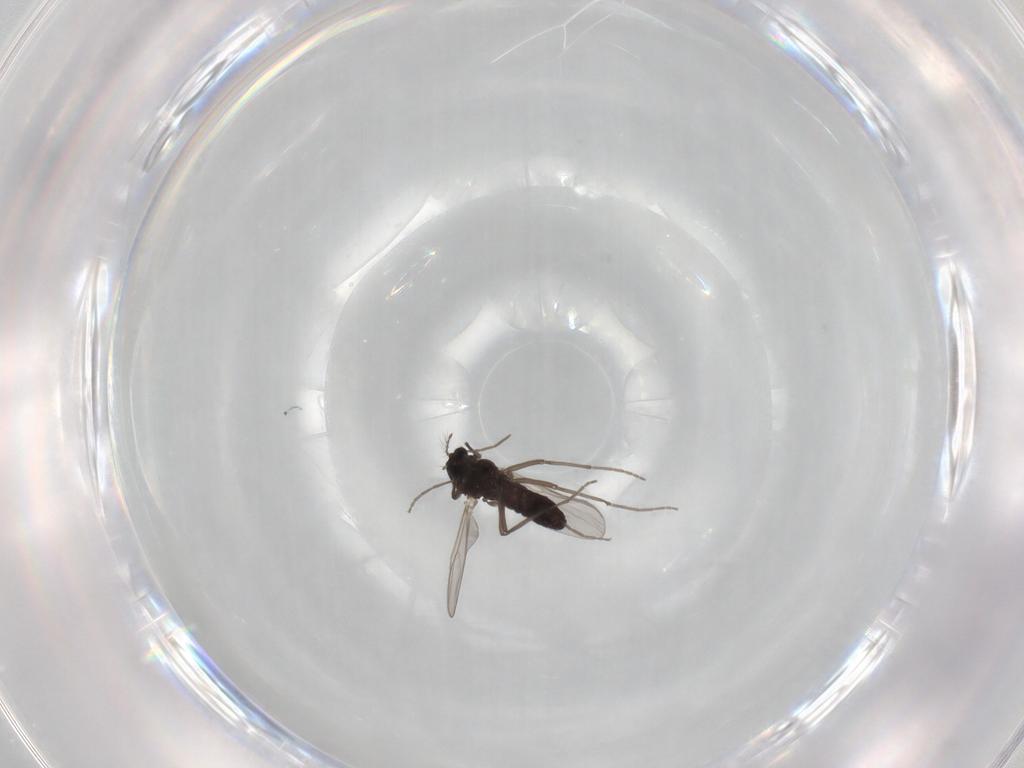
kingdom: Animalia
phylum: Arthropoda
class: Insecta
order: Diptera
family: Chironomidae
